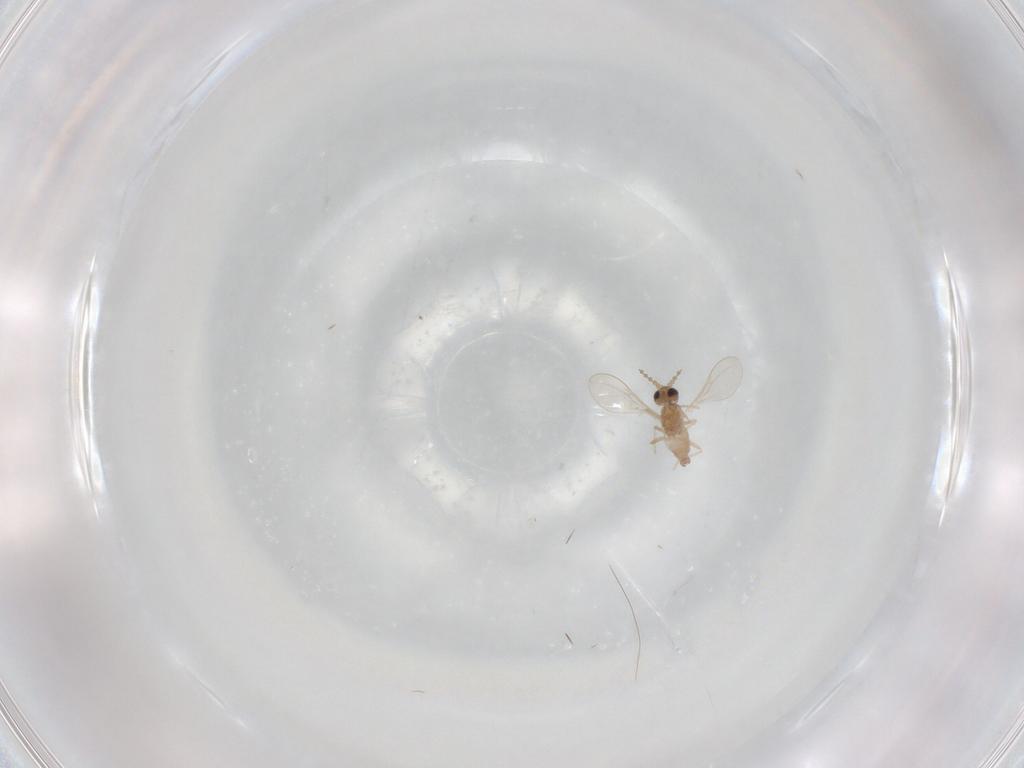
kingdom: Animalia
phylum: Arthropoda
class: Insecta
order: Diptera
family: Cecidomyiidae
